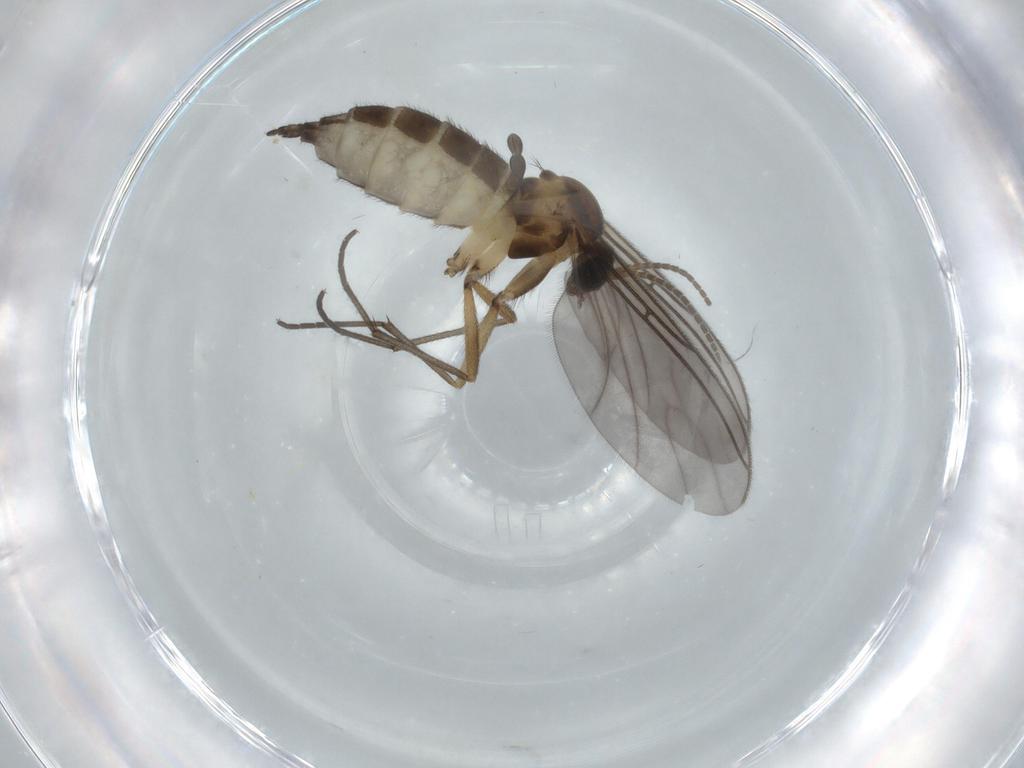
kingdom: Animalia
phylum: Arthropoda
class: Insecta
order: Diptera
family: Sciaridae
